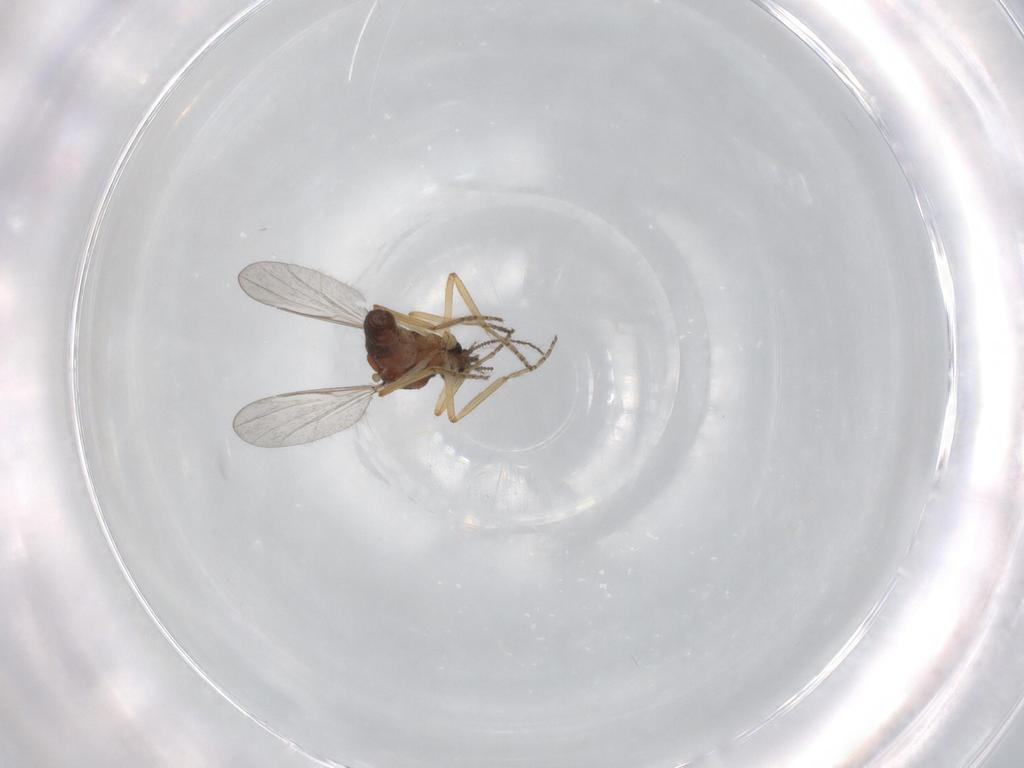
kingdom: Animalia
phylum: Arthropoda
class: Insecta
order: Diptera
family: Ceratopogonidae
